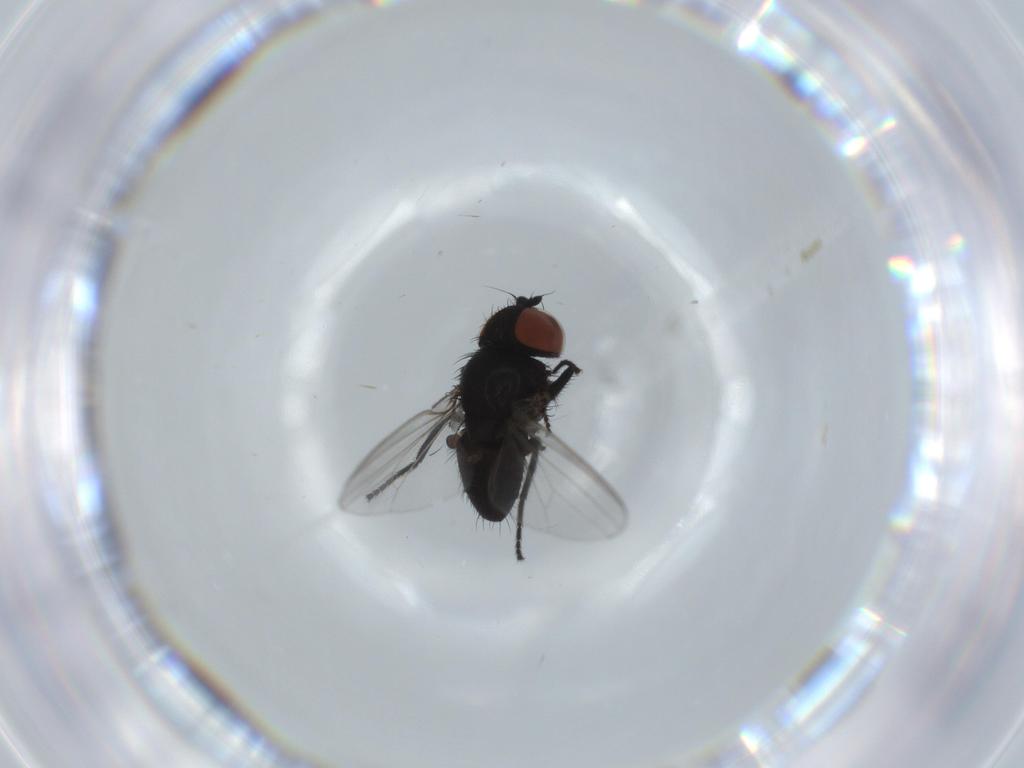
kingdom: Animalia
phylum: Arthropoda
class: Insecta
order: Diptera
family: Milichiidae
